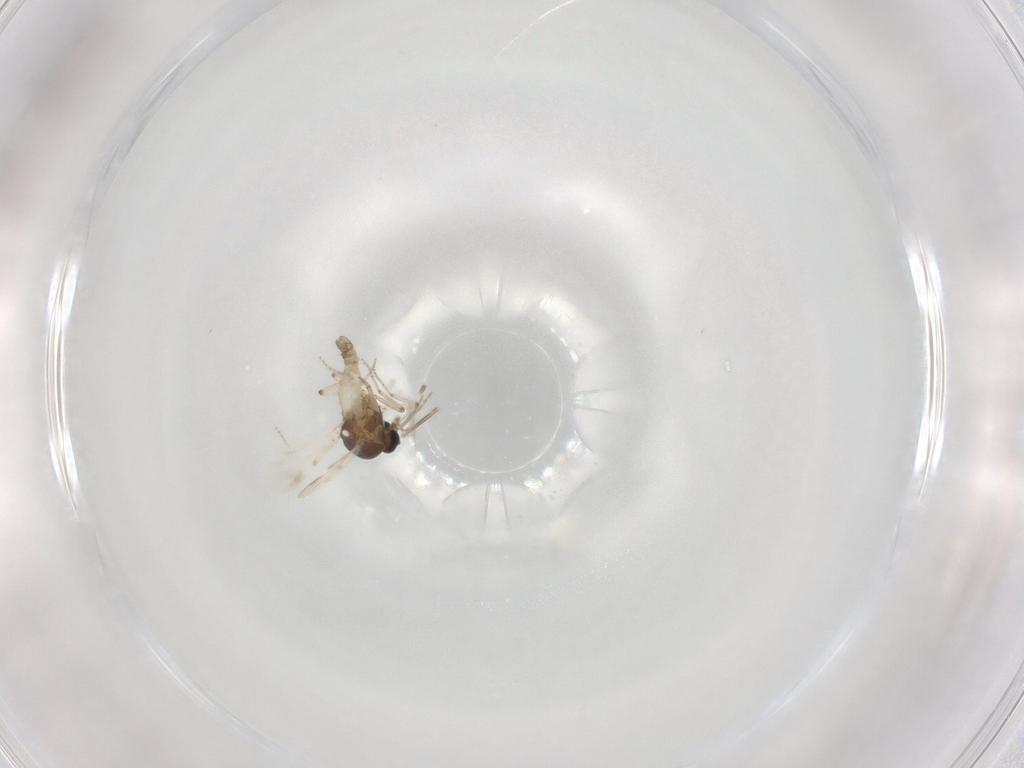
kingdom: Animalia
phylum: Arthropoda
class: Insecta
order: Diptera
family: Ceratopogonidae
